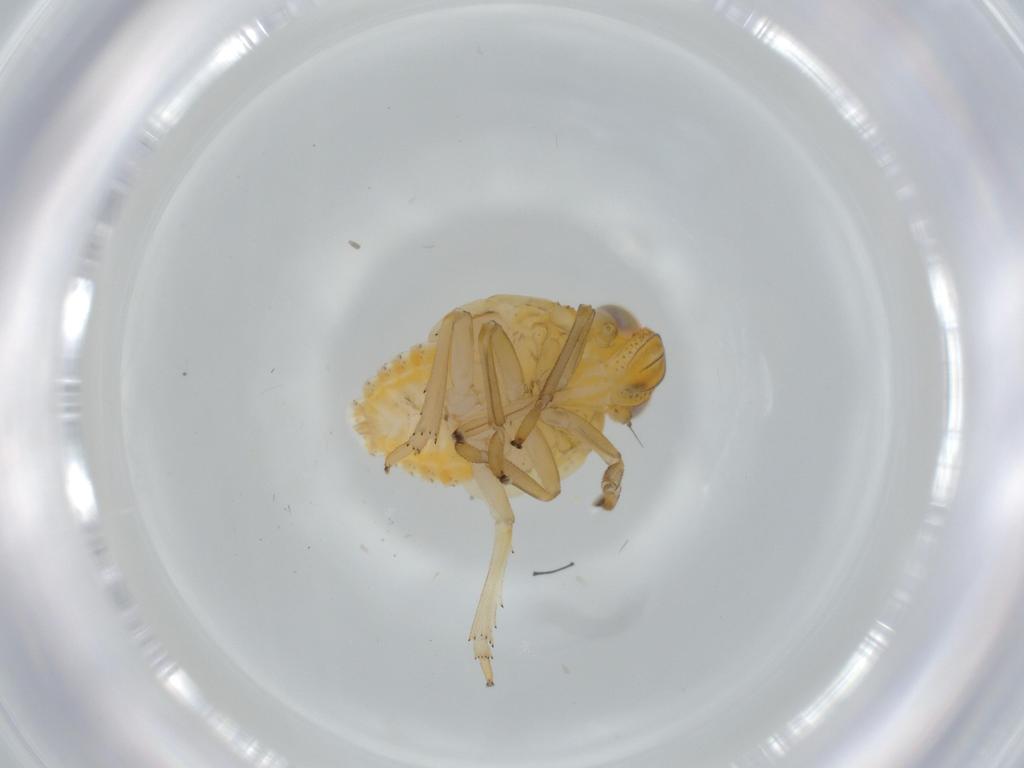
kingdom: Animalia
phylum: Arthropoda
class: Insecta
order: Hemiptera
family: Issidae
